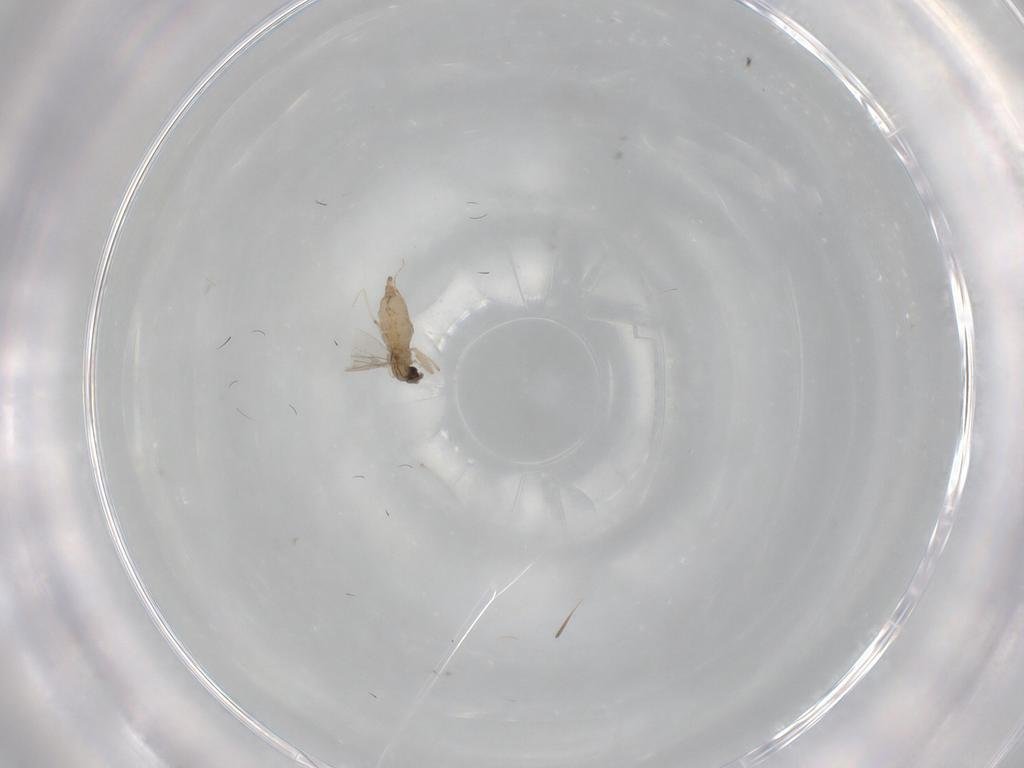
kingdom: Animalia
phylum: Arthropoda
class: Insecta
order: Diptera
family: Cecidomyiidae
